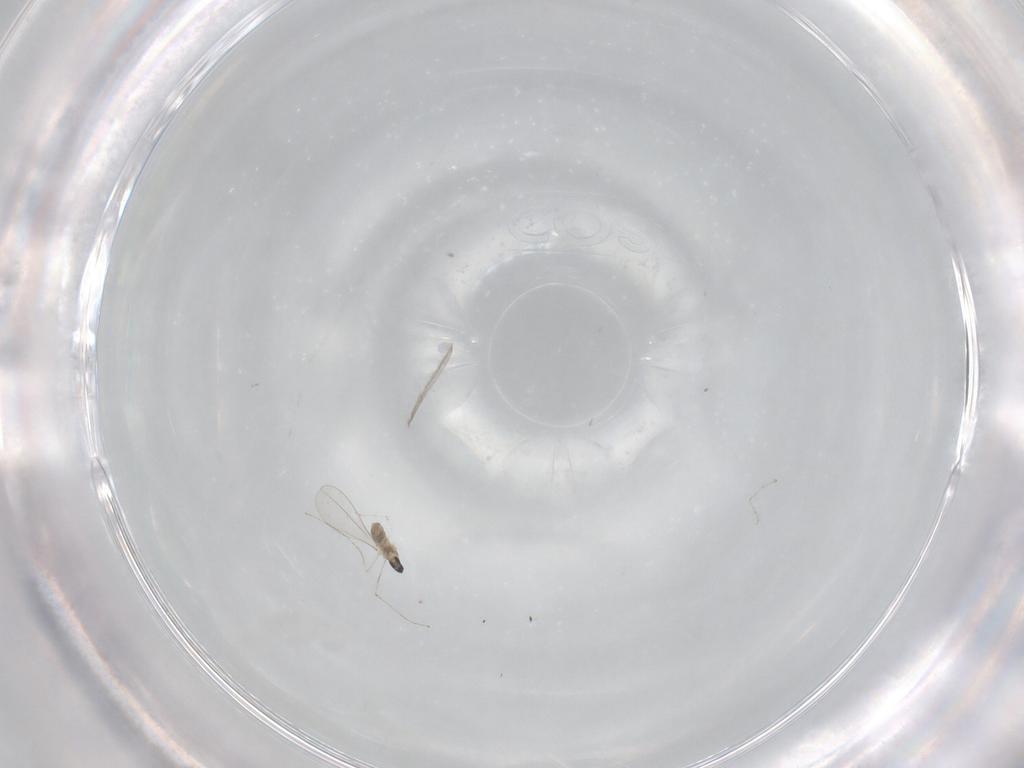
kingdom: Animalia
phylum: Arthropoda
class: Insecta
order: Diptera
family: Cecidomyiidae
